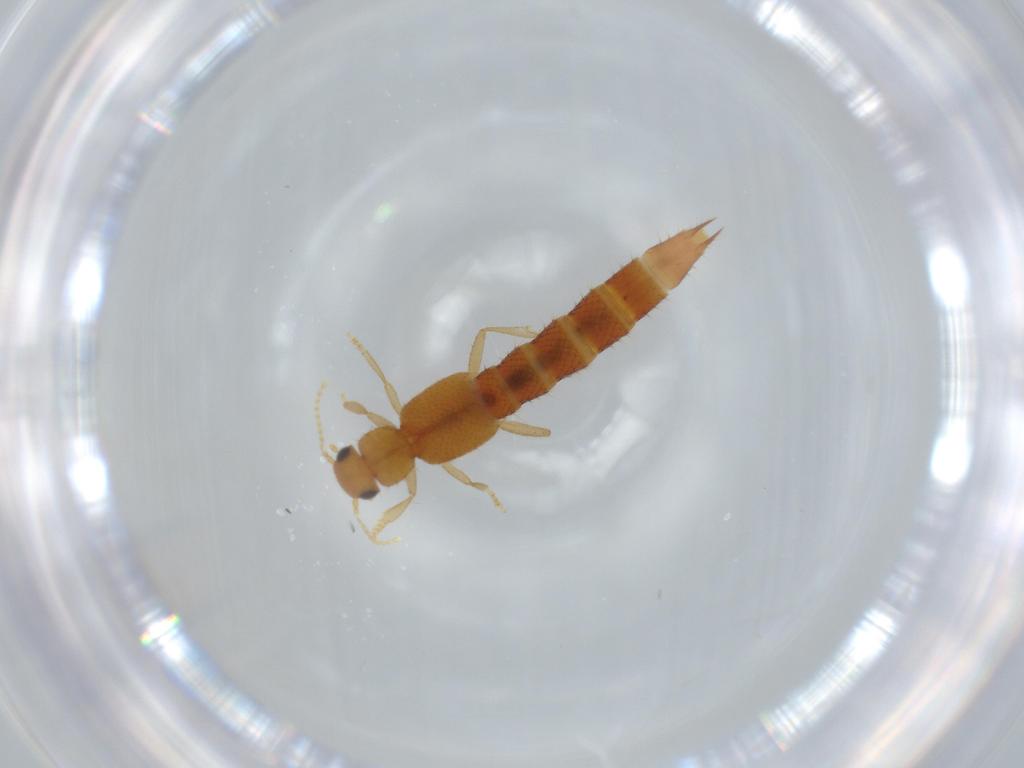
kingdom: Animalia
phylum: Arthropoda
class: Insecta
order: Coleoptera
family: Staphylinidae
